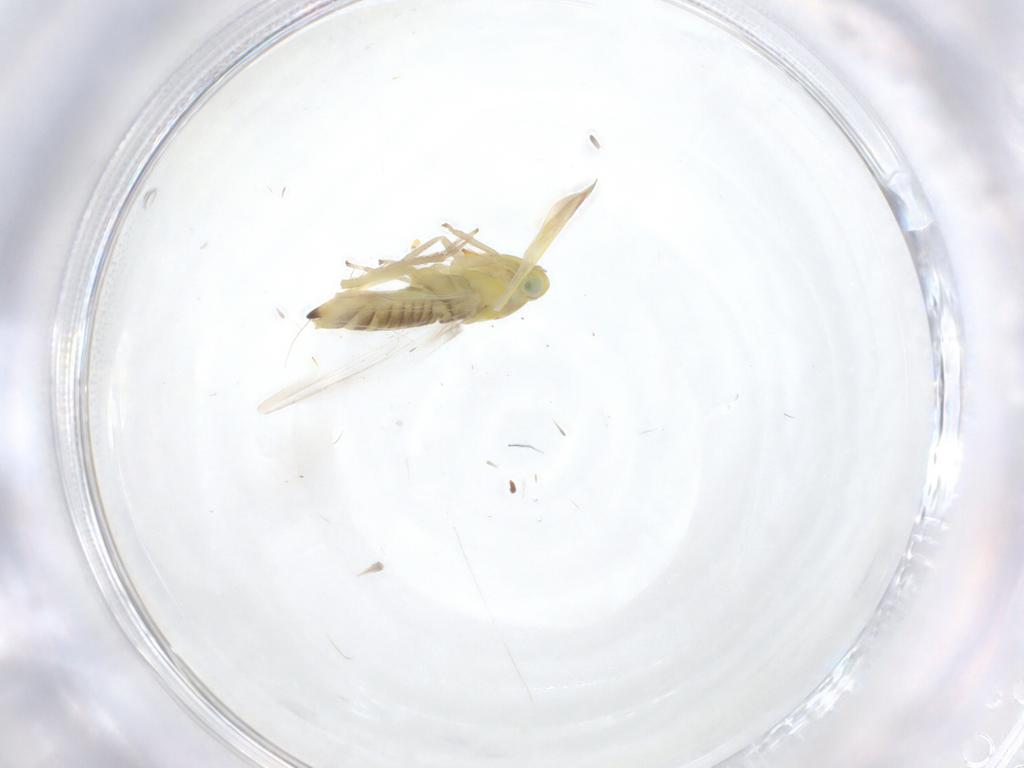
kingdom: Animalia
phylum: Arthropoda
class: Insecta
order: Hemiptera
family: Cicadellidae
